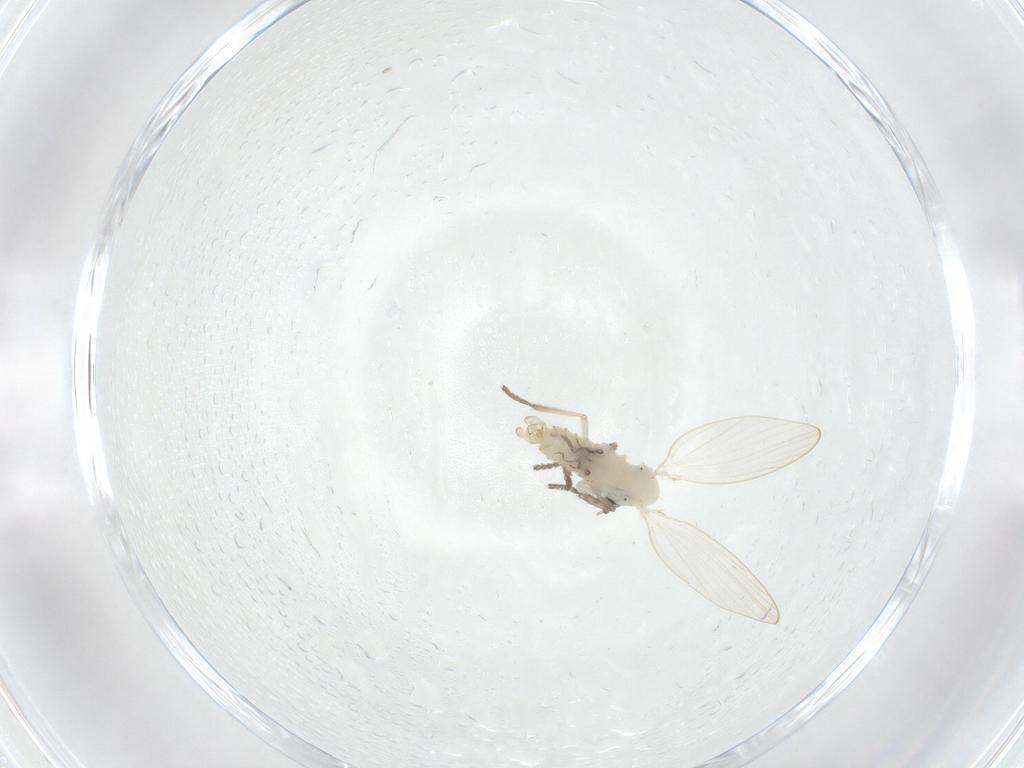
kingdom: Animalia
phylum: Arthropoda
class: Insecta
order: Diptera
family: Psychodidae
